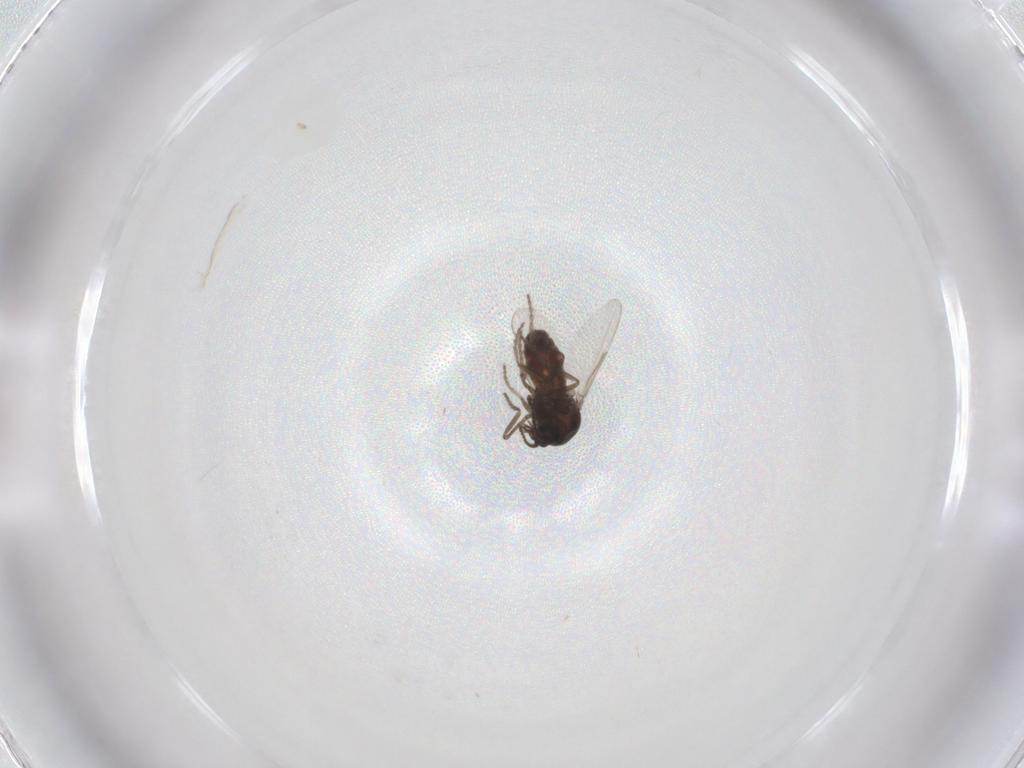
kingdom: Animalia
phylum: Arthropoda
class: Insecta
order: Diptera
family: Ceratopogonidae
